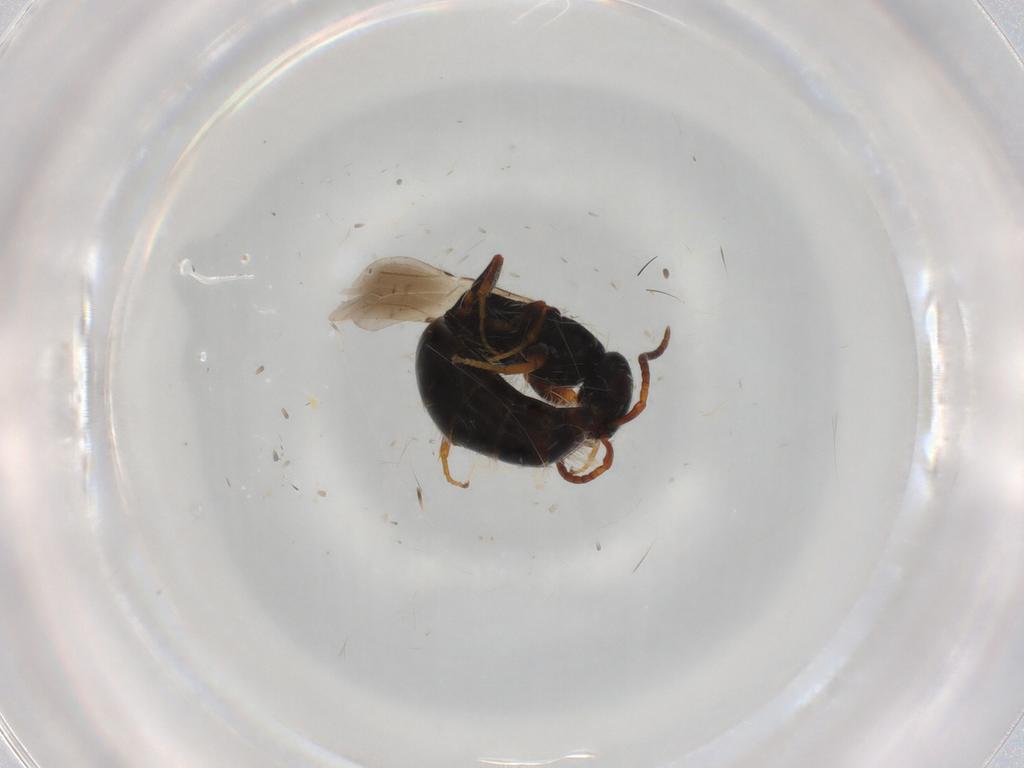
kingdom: Animalia
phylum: Arthropoda
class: Insecta
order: Hymenoptera
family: Bethylidae
